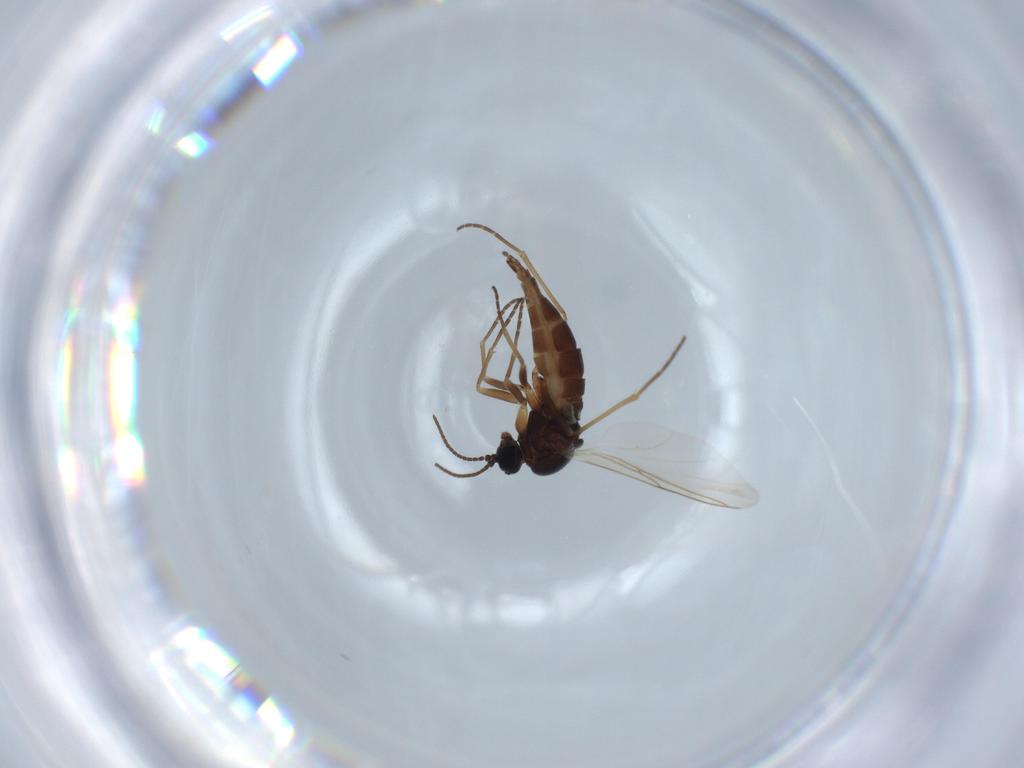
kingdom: Animalia
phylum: Arthropoda
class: Insecta
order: Diptera
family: Sciaridae
